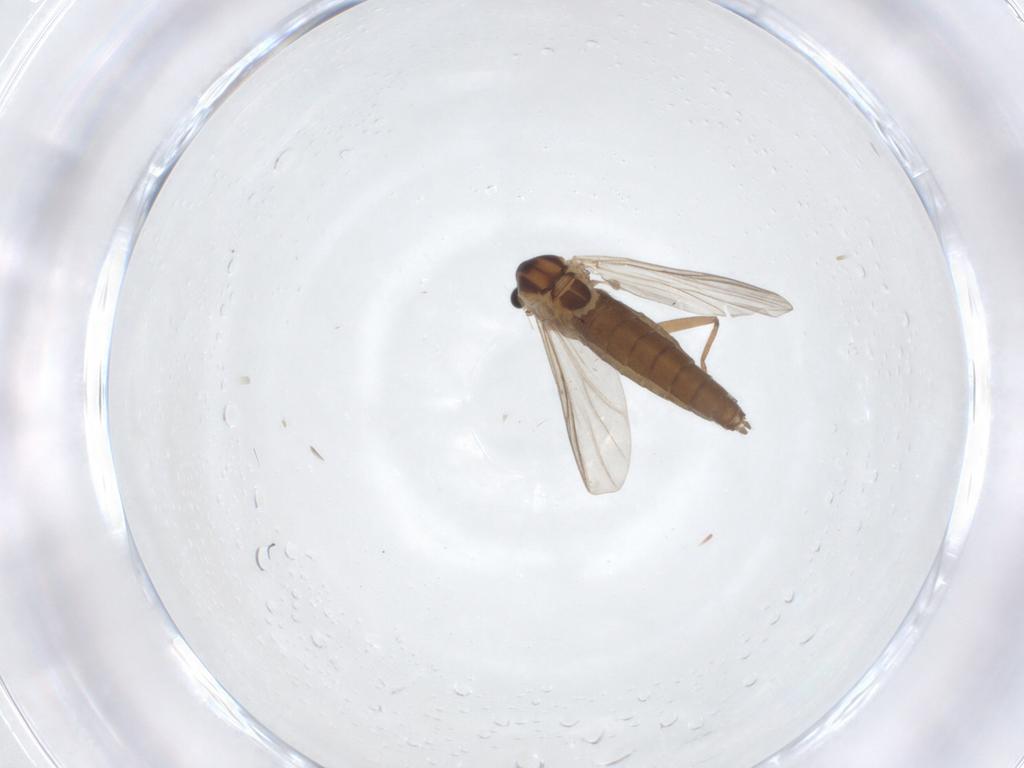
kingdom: Animalia
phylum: Arthropoda
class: Insecta
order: Diptera
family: Chironomidae
